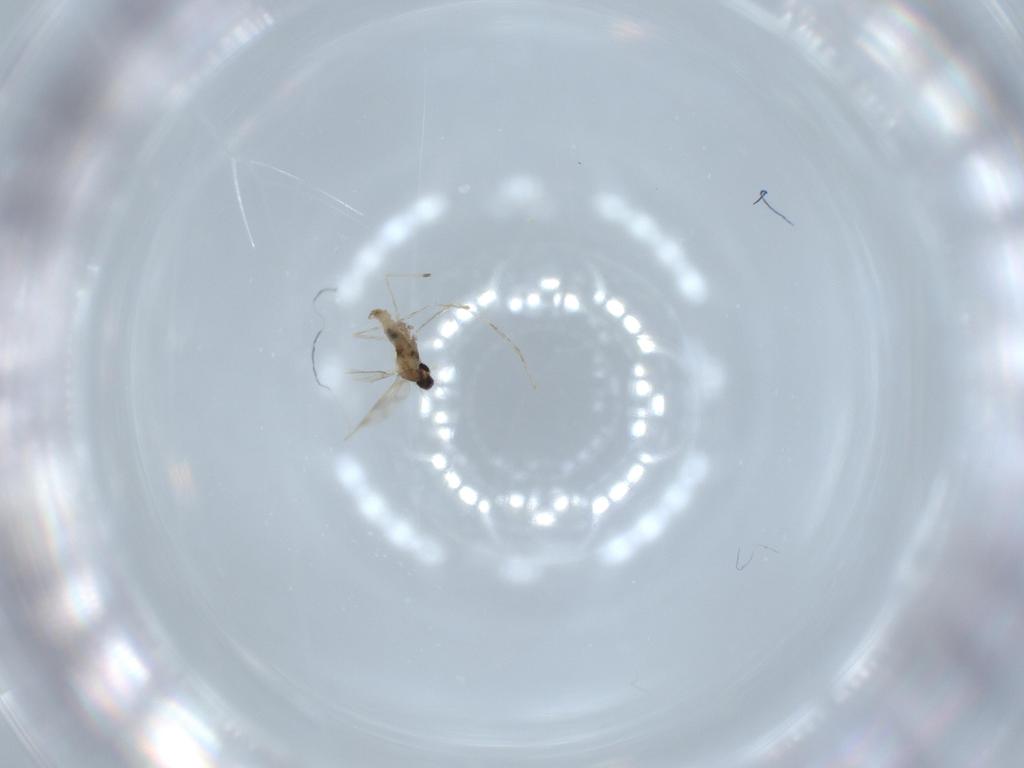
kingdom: Animalia
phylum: Arthropoda
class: Insecta
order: Diptera
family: Cecidomyiidae
